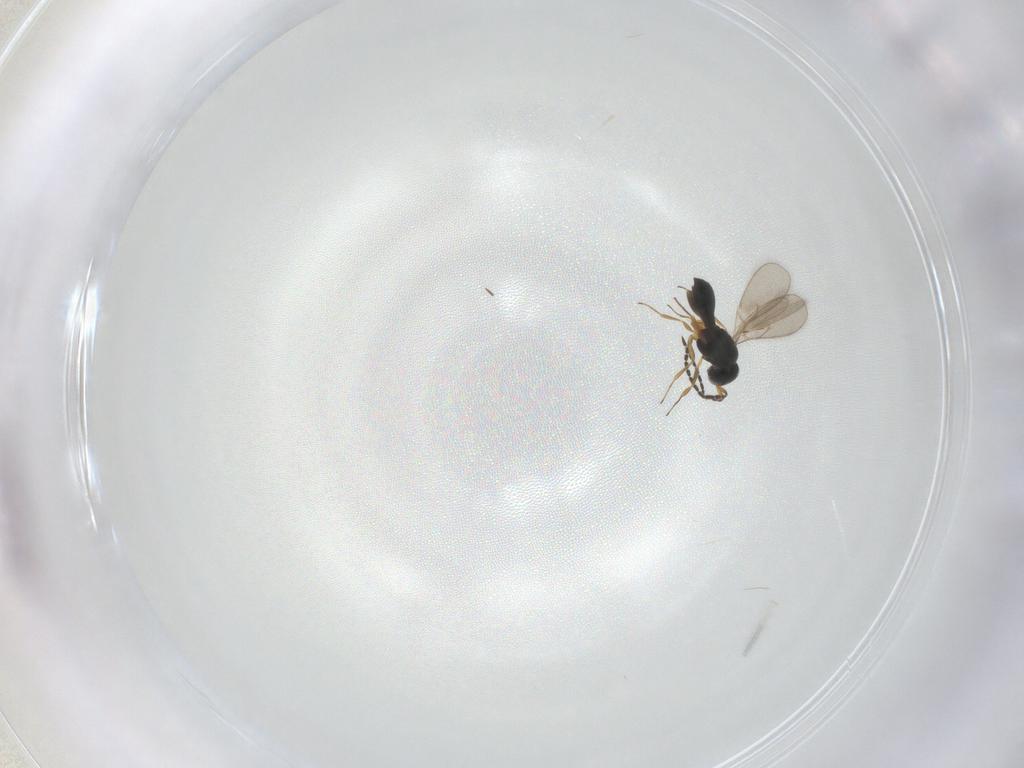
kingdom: Animalia
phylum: Arthropoda
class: Insecta
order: Hymenoptera
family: Scelionidae
